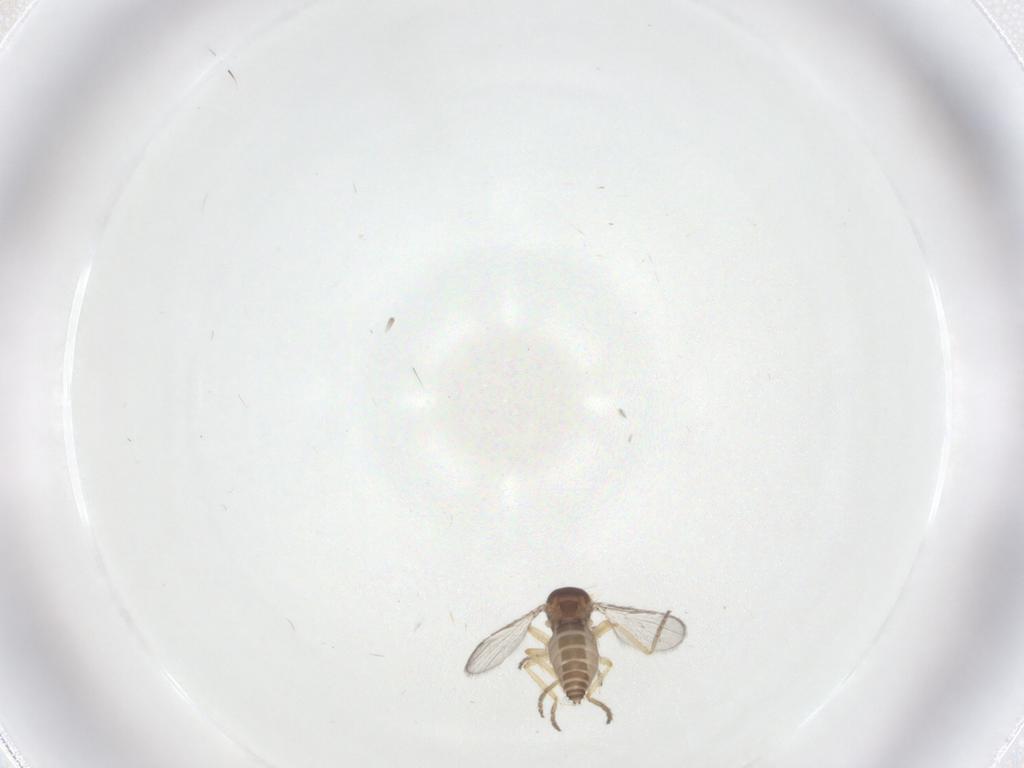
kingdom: Animalia
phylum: Arthropoda
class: Insecta
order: Diptera
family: Ceratopogonidae
